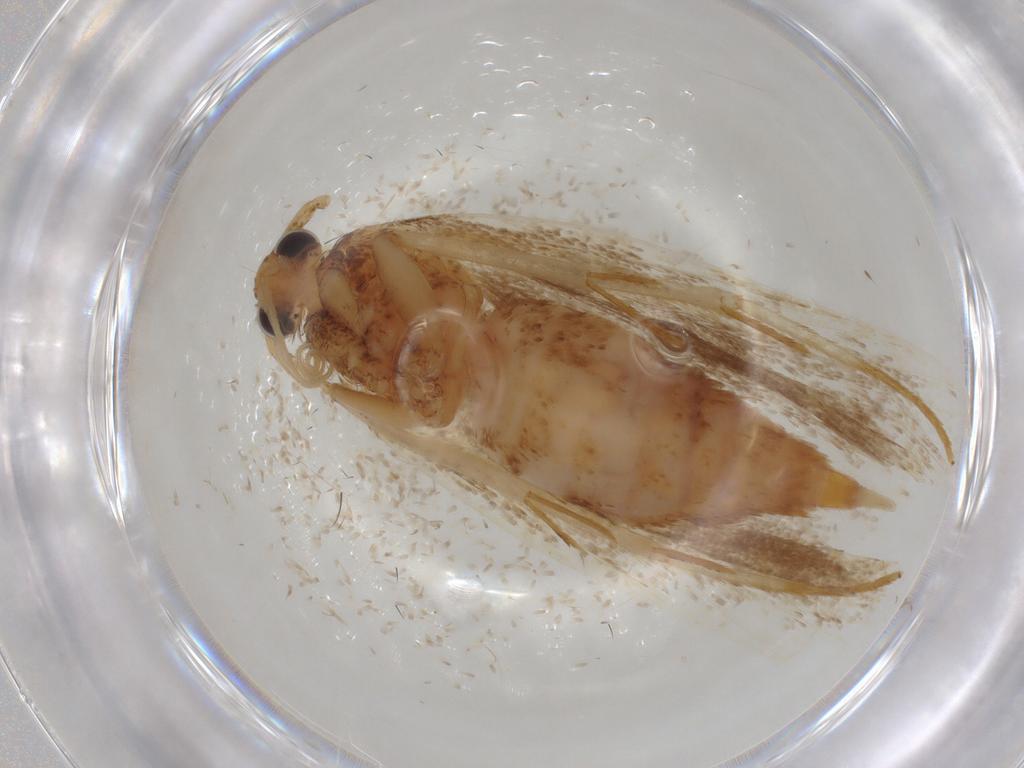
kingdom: Animalia
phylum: Arthropoda
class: Insecta
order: Lepidoptera
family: Lecithoceridae
